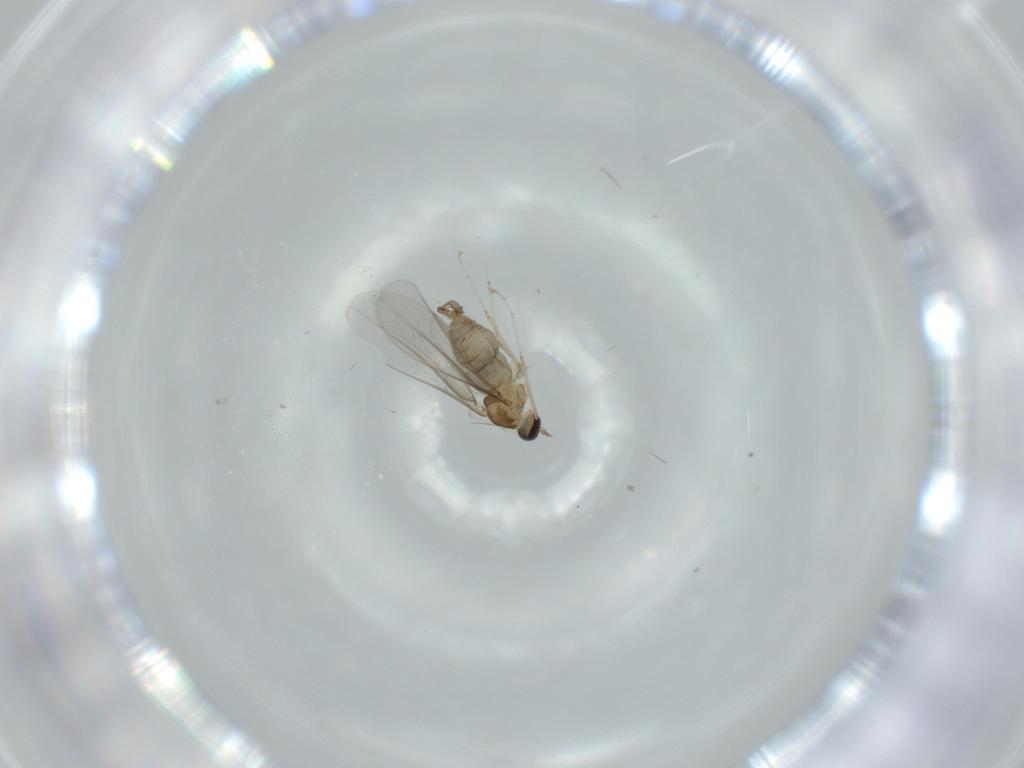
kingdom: Animalia
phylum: Arthropoda
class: Insecta
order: Diptera
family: Cecidomyiidae
